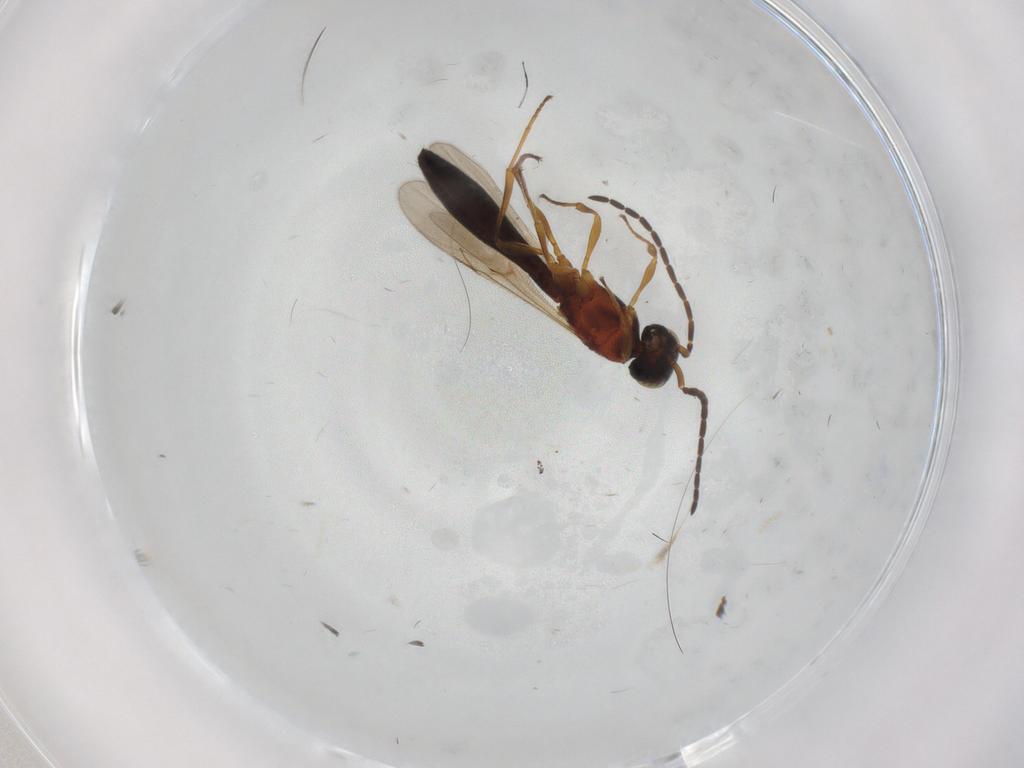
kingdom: Animalia
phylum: Arthropoda
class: Insecta
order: Hymenoptera
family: Scelionidae
